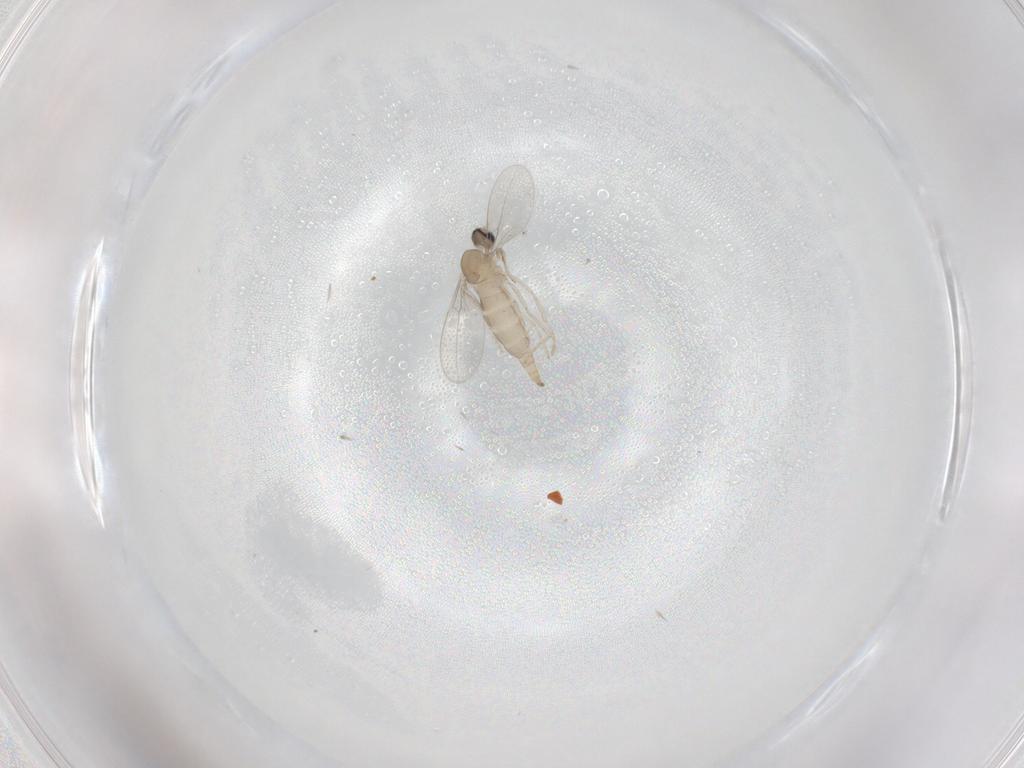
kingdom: Animalia
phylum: Arthropoda
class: Insecta
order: Diptera
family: Cecidomyiidae
